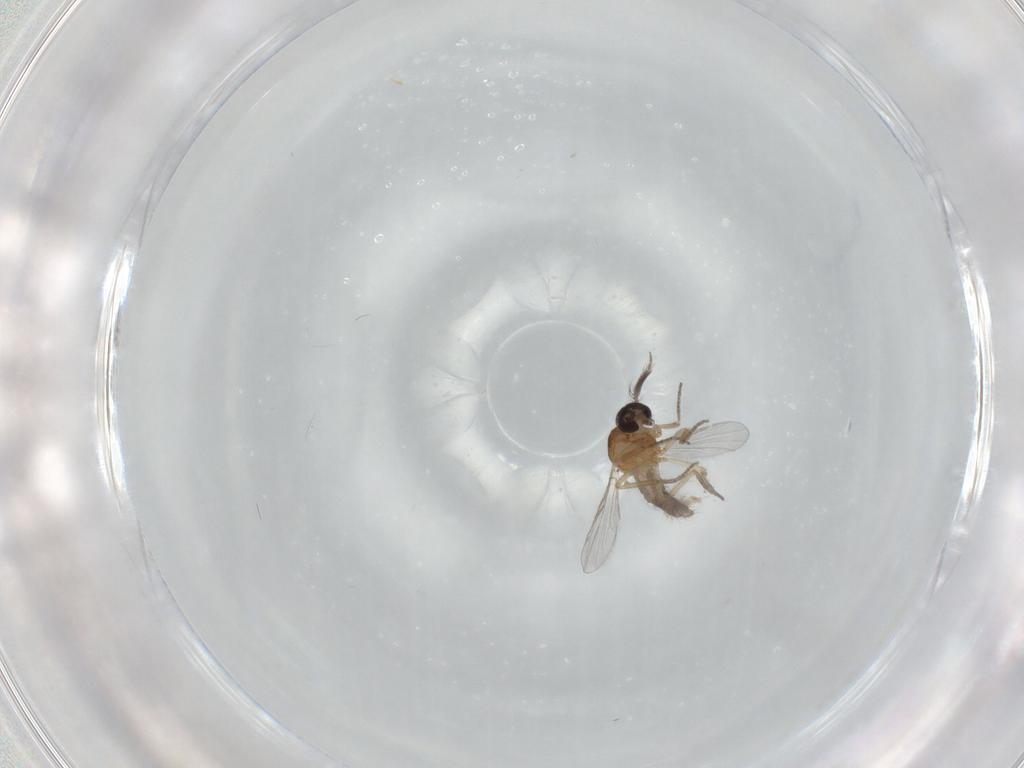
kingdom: Animalia
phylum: Arthropoda
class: Insecta
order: Diptera
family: Ceratopogonidae
